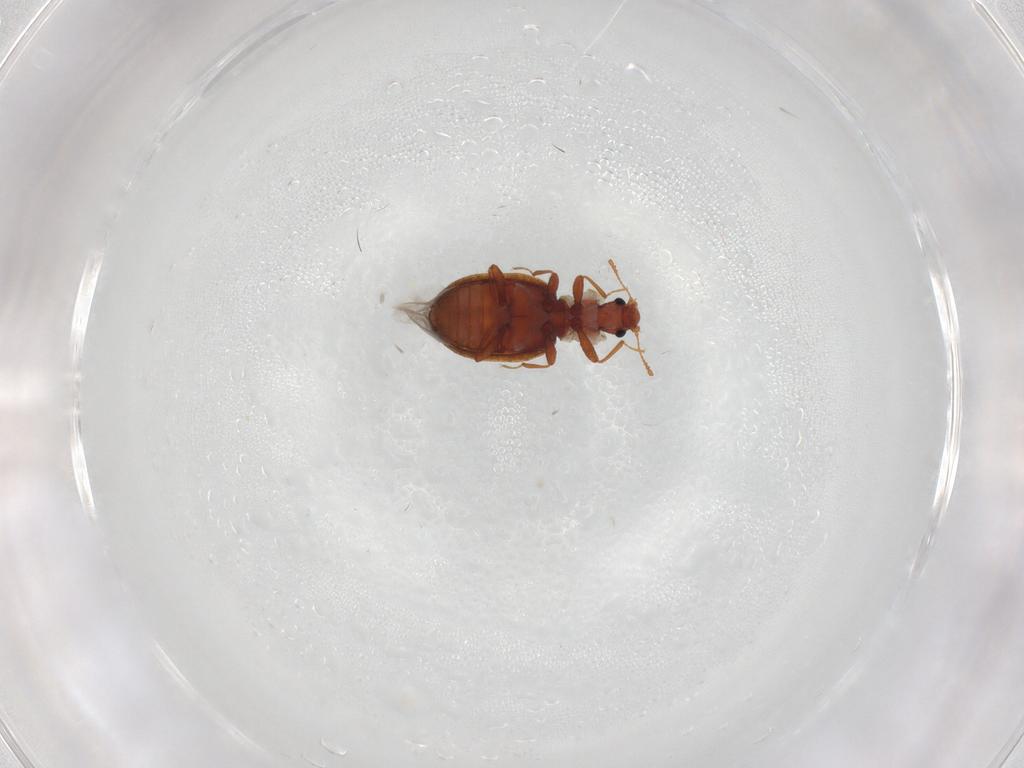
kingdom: Animalia
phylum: Arthropoda
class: Insecta
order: Coleoptera
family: Latridiidae
